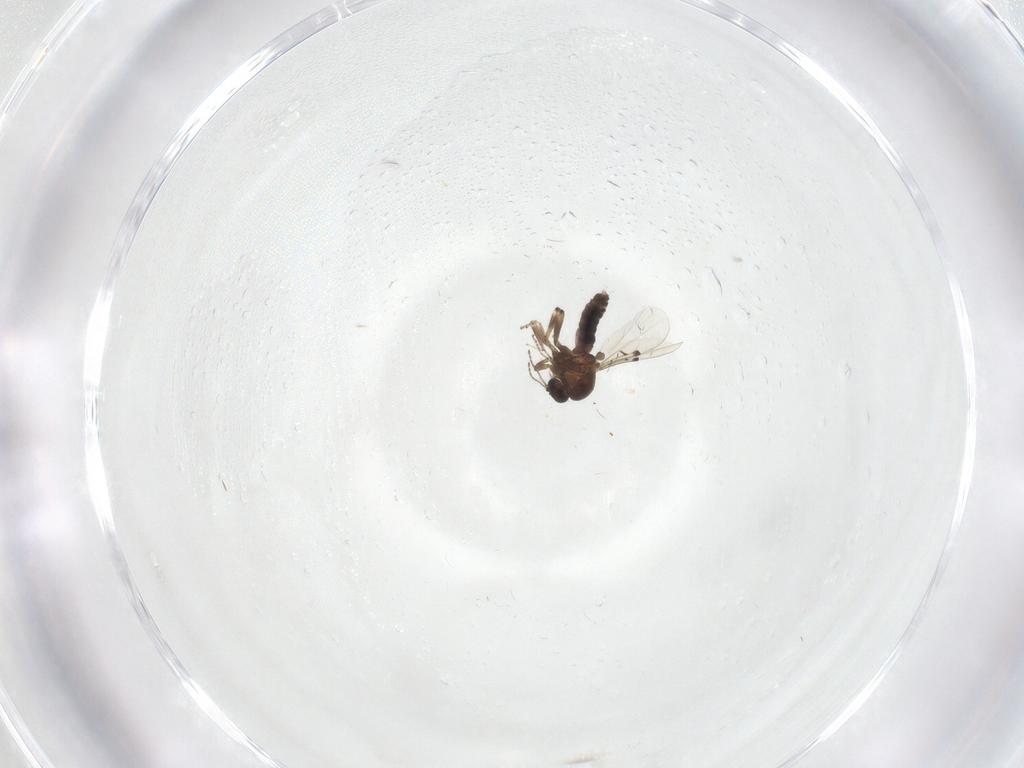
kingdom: Animalia
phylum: Arthropoda
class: Insecta
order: Diptera
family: Ceratopogonidae
